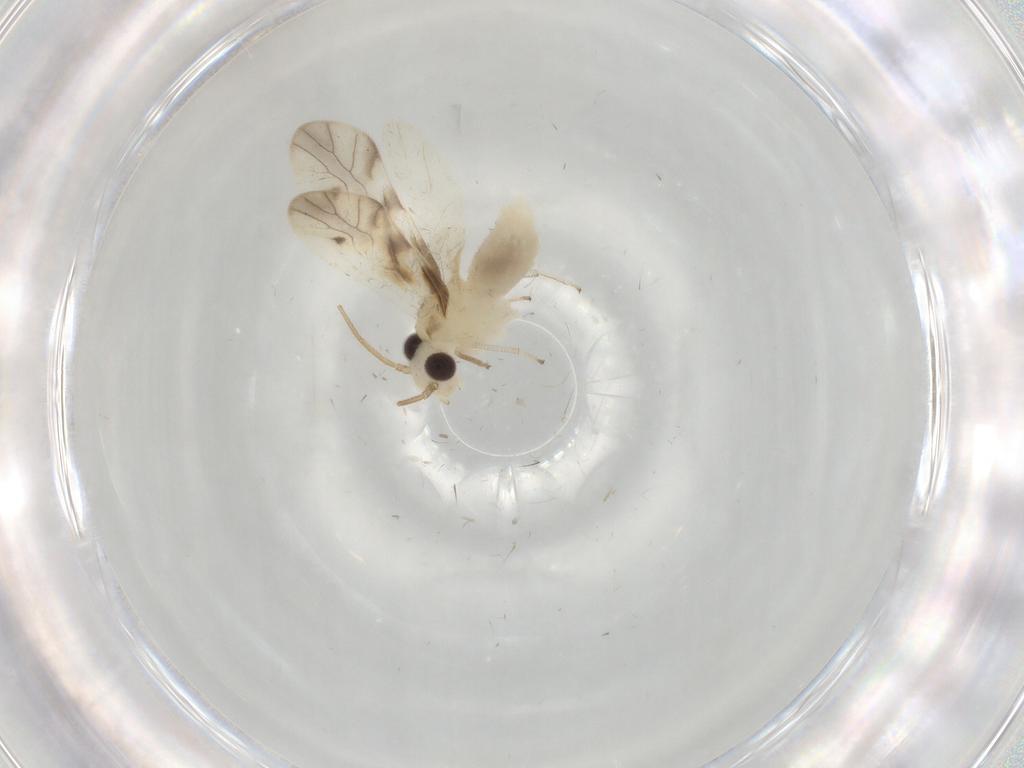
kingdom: Animalia
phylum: Arthropoda
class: Insecta
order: Psocodea
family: Caeciliusidae
